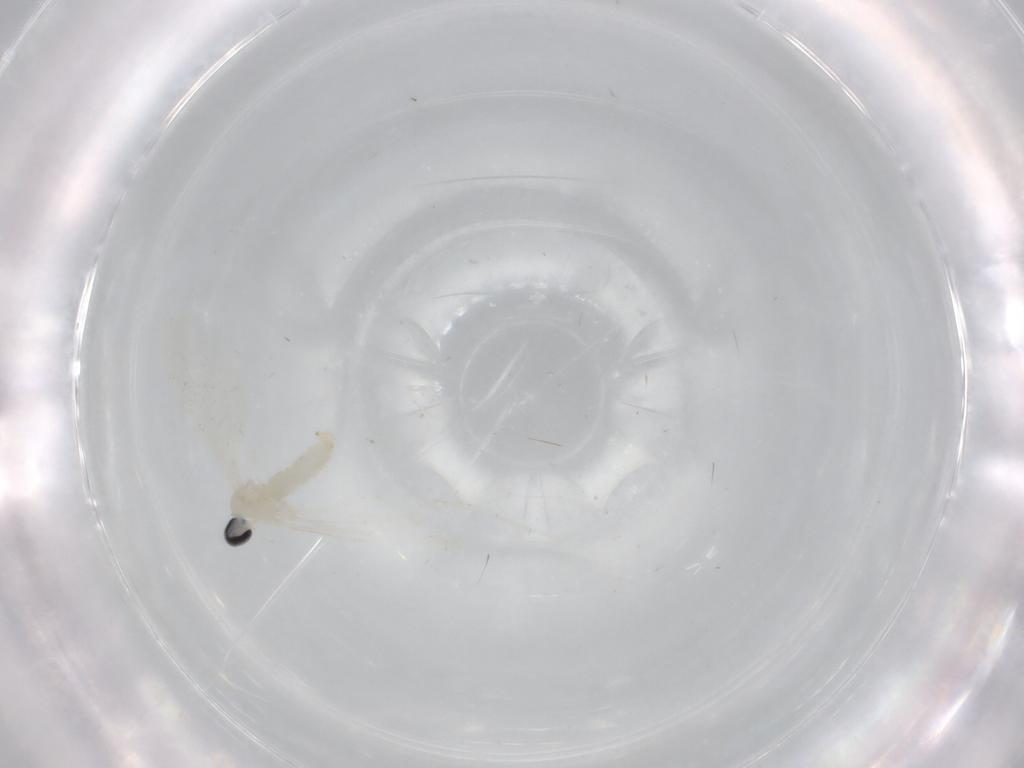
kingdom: Animalia
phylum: Arthropoda
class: Insecta
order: Diptera
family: Cecidomyiidae
